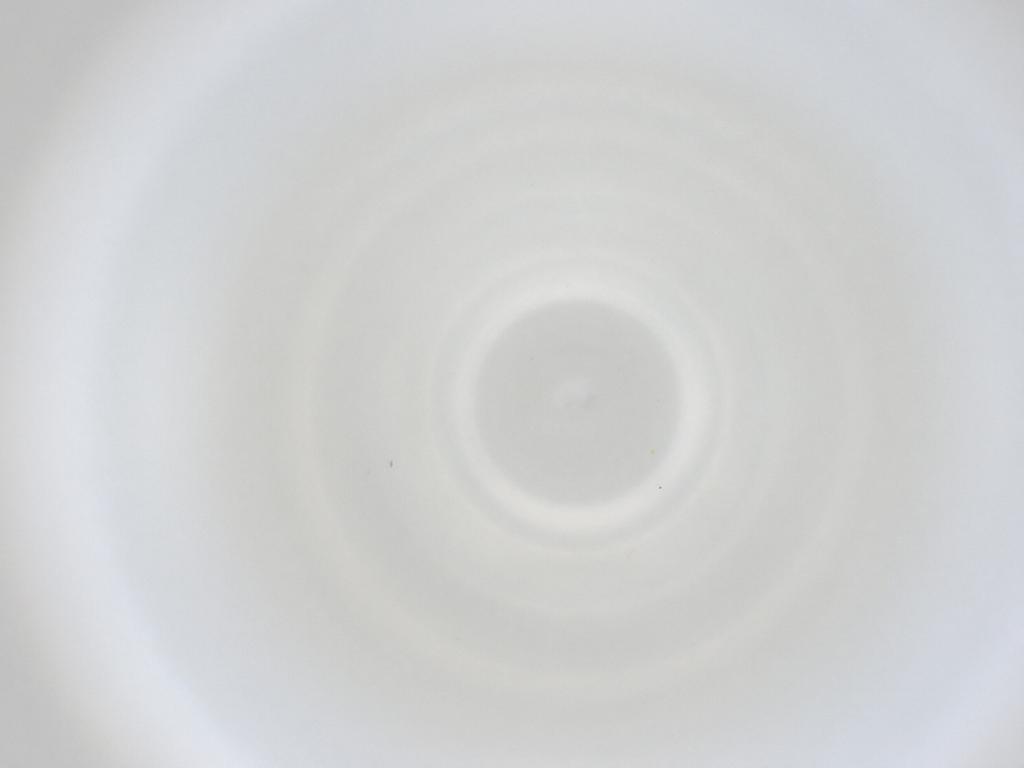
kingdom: Animalia
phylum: Arthropoda
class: Insecta
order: Diptera
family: Cecidomyiidae
